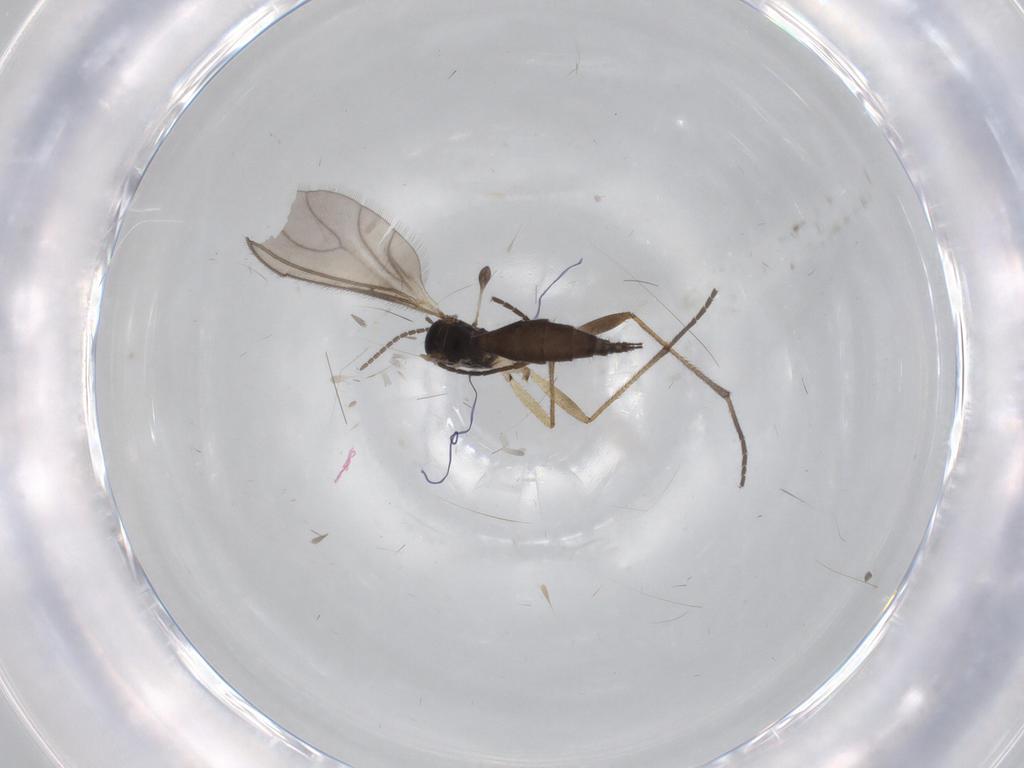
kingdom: Animalia
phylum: Arthropoda
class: Insecta
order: Diptera
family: Sciaridae
